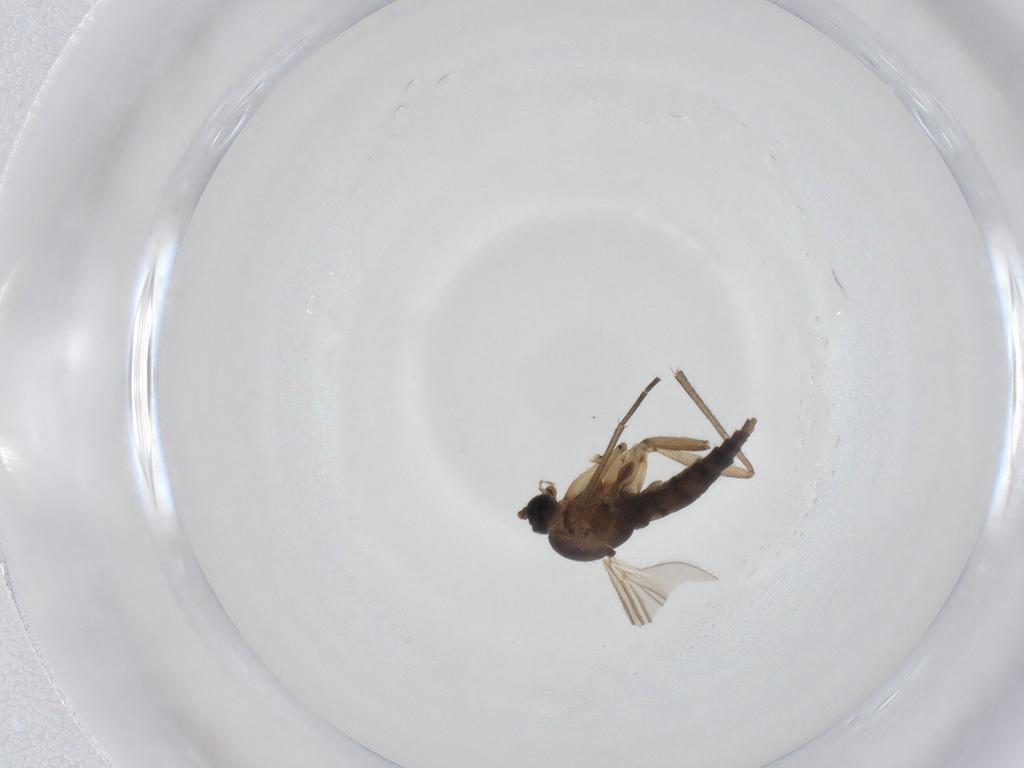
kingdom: Animalia
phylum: Arthropoda
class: Insecta
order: Diptera
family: Sciaridae
